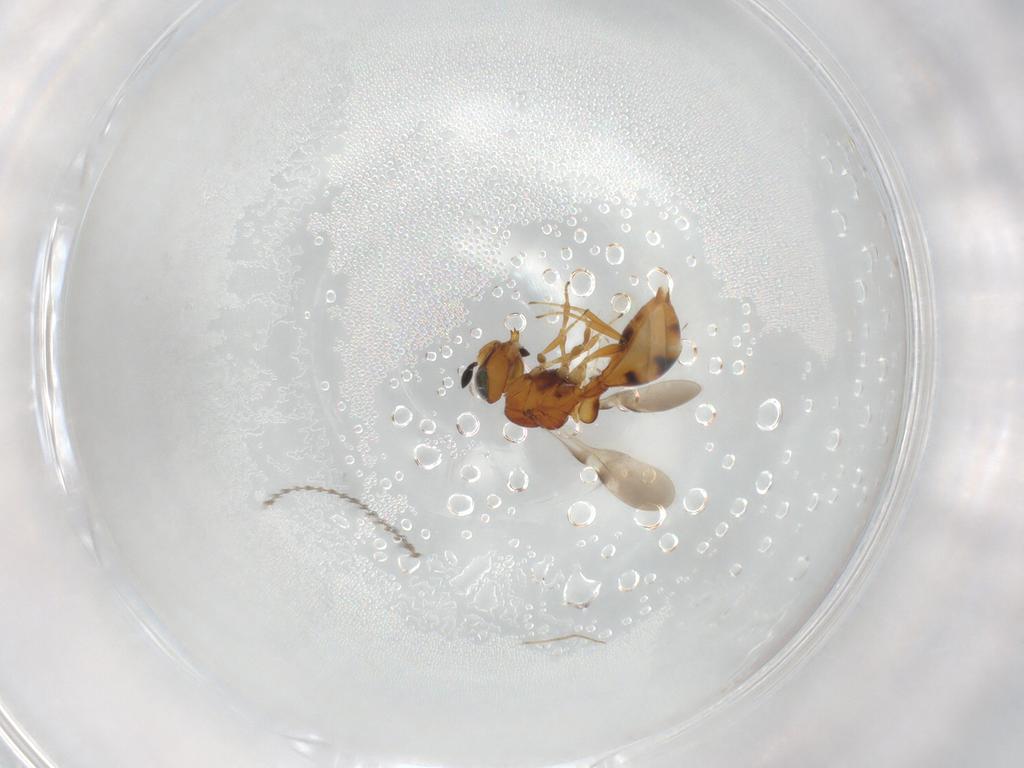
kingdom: Animalia
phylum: Arthropoda
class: Insecta
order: Hymenoptera
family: Scelionidae
